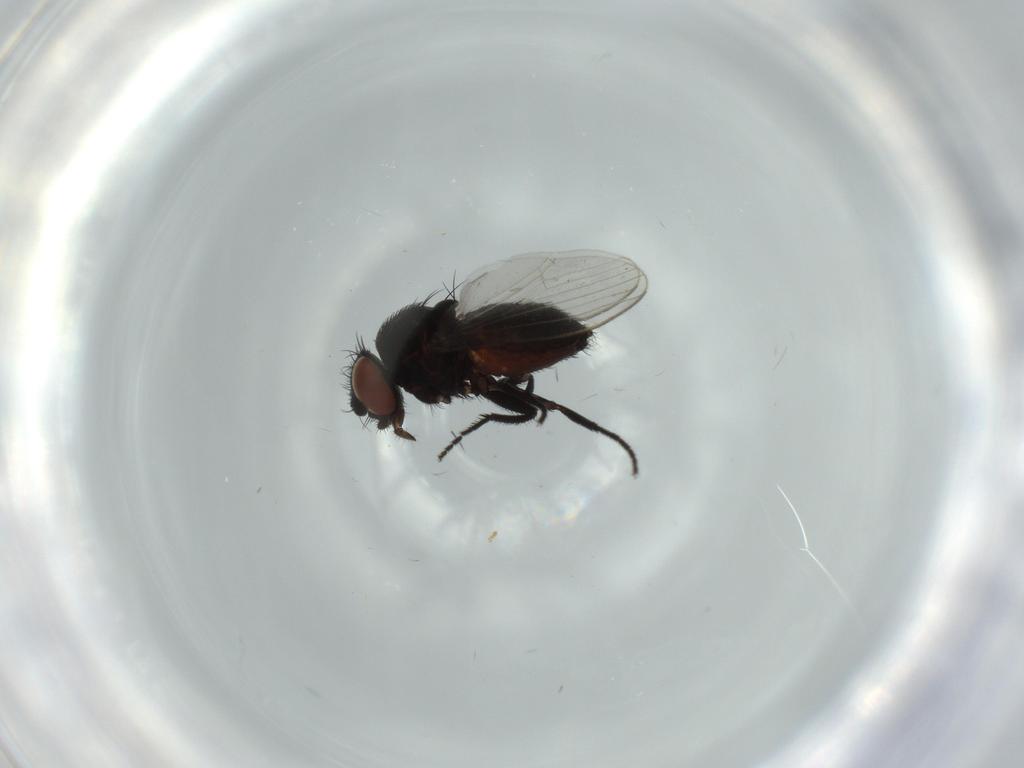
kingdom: Animalia
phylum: Arthropoda
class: Insecta
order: Diptera
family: Milichiidae
